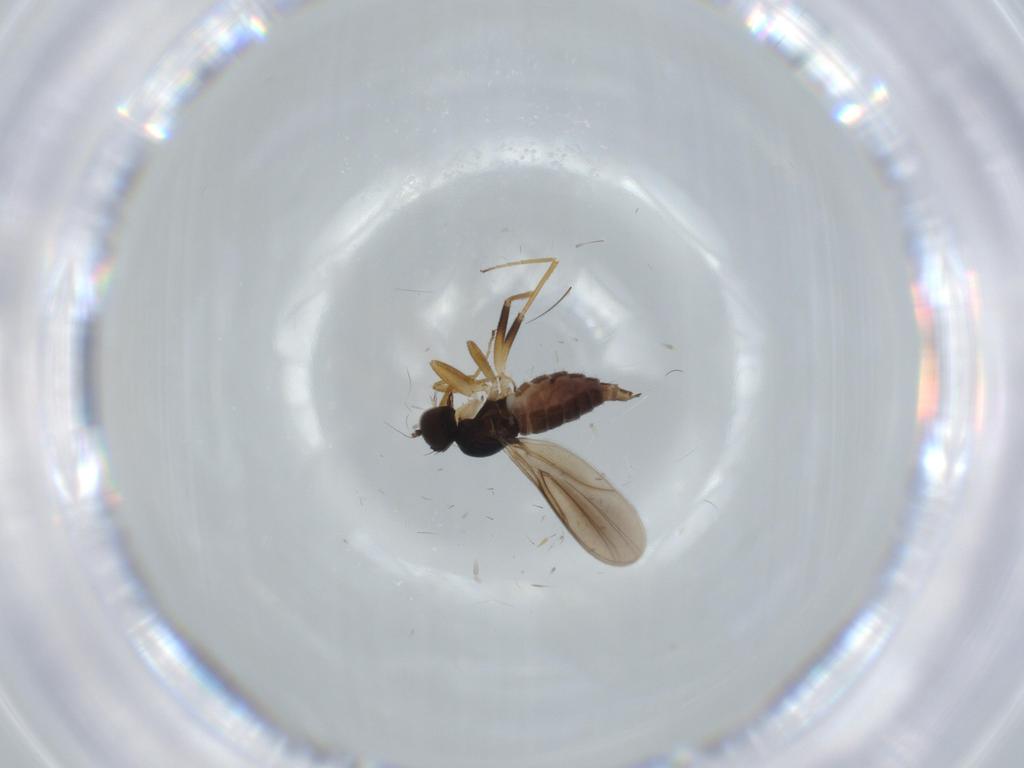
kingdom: Animalia
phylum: Arthropoda
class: Insecta
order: Diptera
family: Hybotidae
